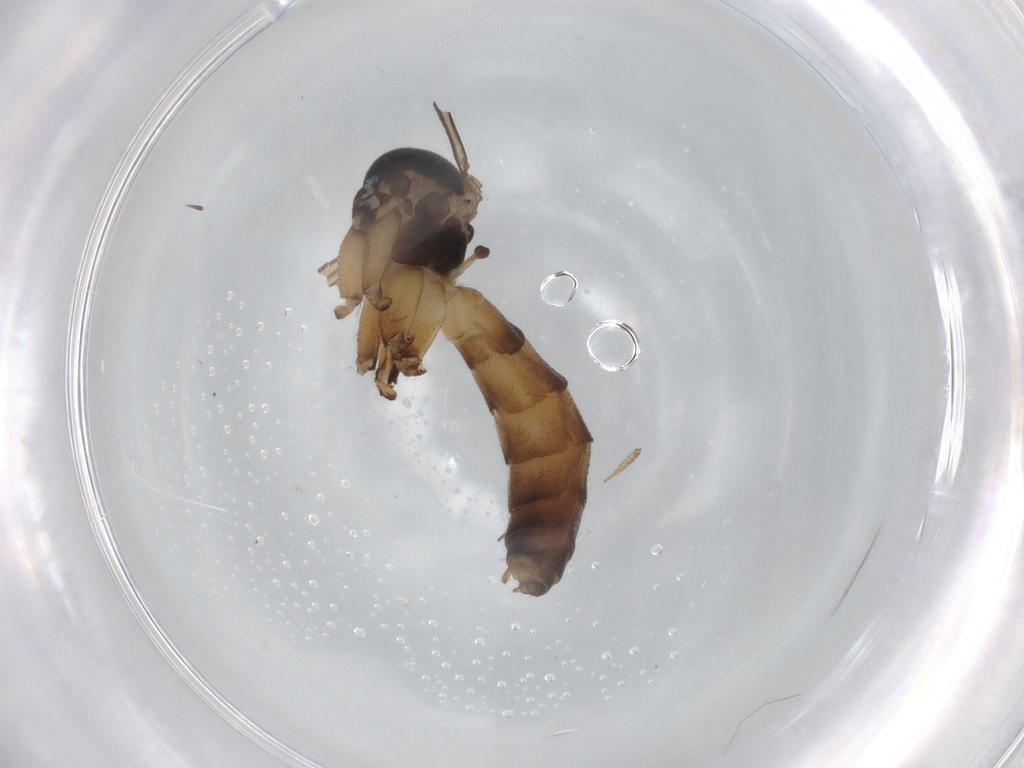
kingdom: Animalia
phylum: Arthropoda
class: Insecta
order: Diptera
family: Mycetophilidae
